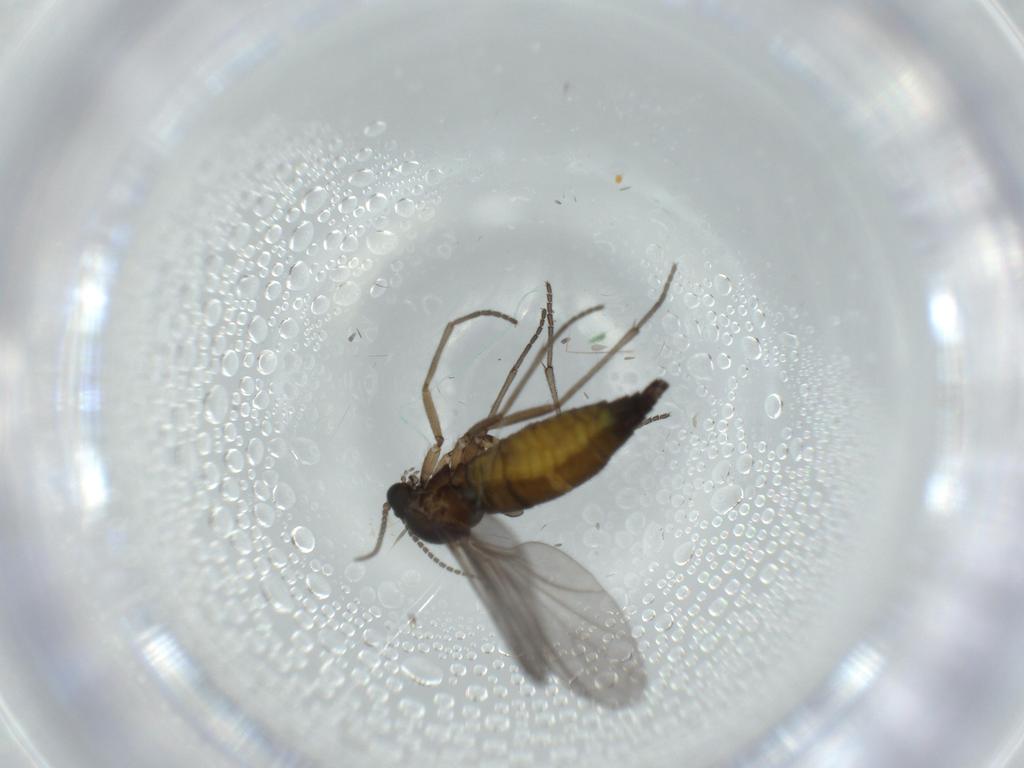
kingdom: Animalia
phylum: Arthropoda
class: Insecta
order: Diptera
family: Sciaridae
